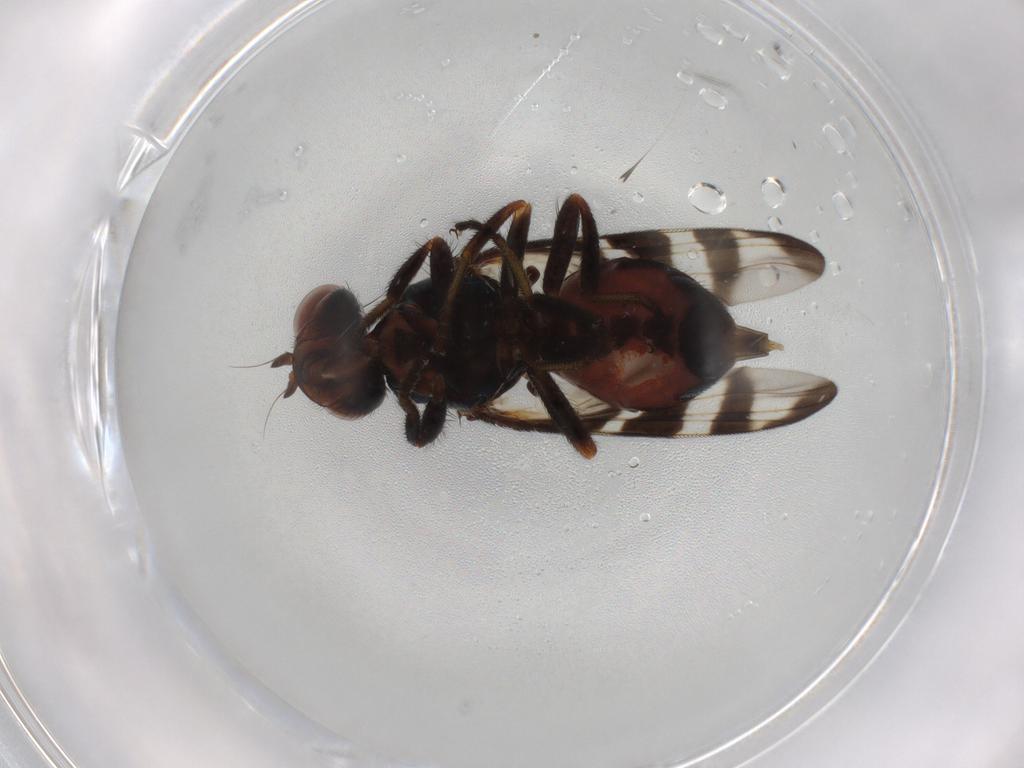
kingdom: Animalia
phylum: Arthropoda
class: Insecta
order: Diptera
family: Platystomatidae
